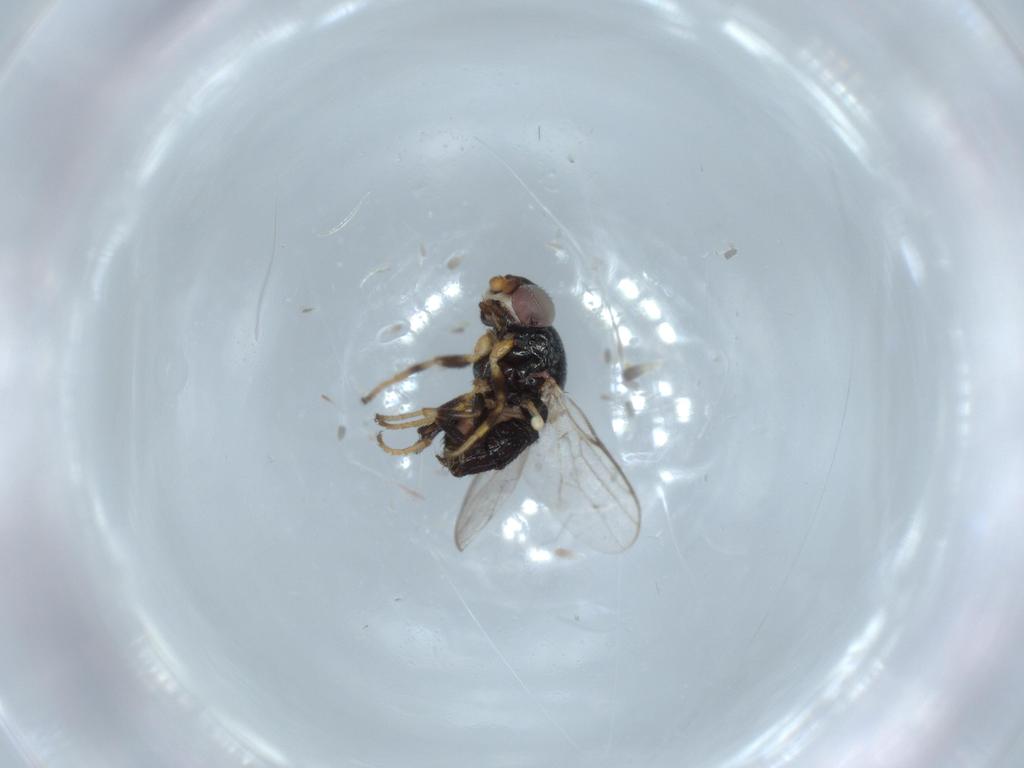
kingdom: Animalia
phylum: Arthropoda
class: Insecta
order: Diptera
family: Chloropidae
